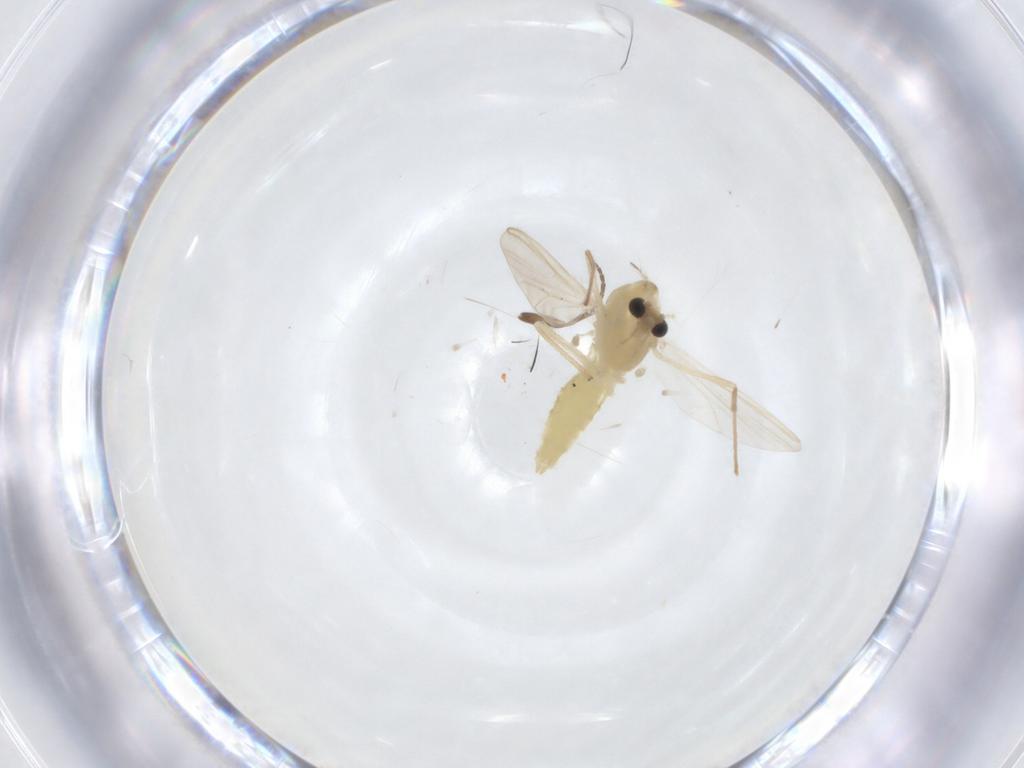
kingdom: Animalia
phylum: Arthropoda
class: Insecta
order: Diptera
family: Chironomidae
